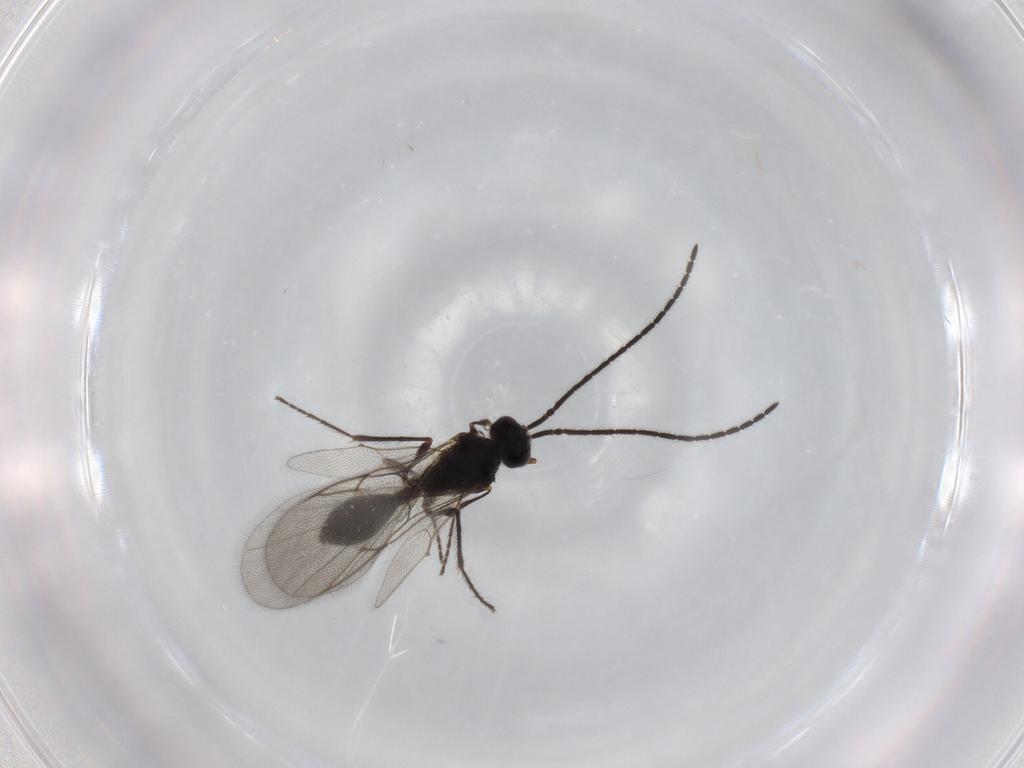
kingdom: Animalia
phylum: Arthropoda
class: Insecta
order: Hymenoptera
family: Diapriidae
